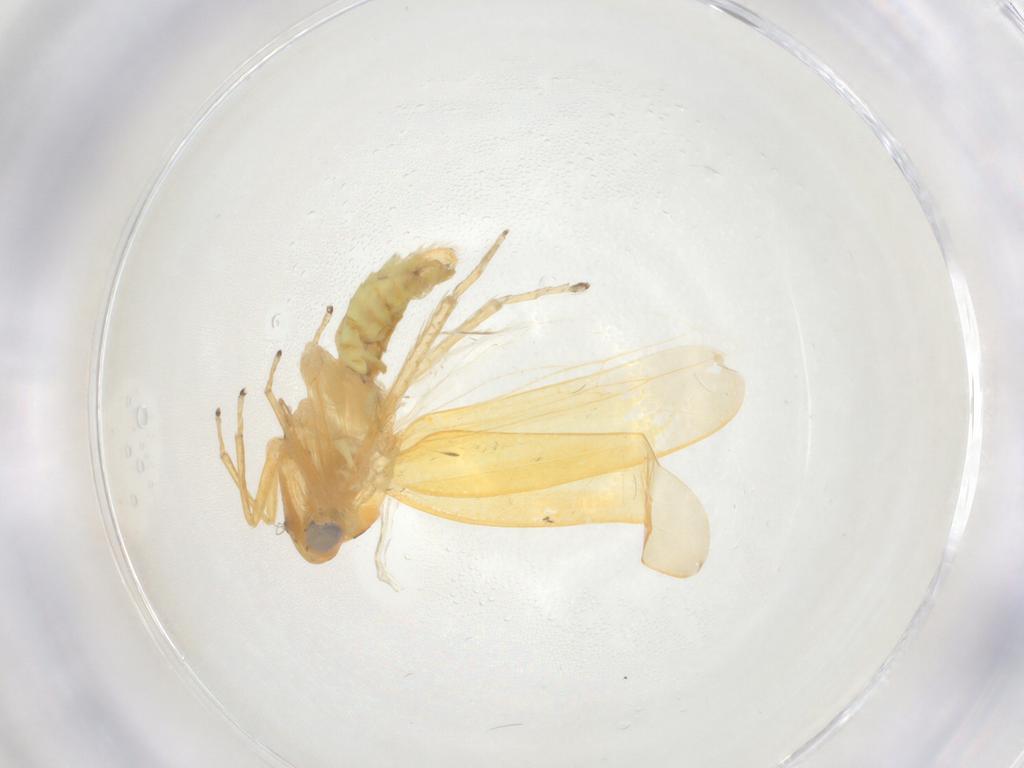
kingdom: Animalia
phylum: Arthropoda
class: Insecta
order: Hemiptera
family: Cicadellidae
